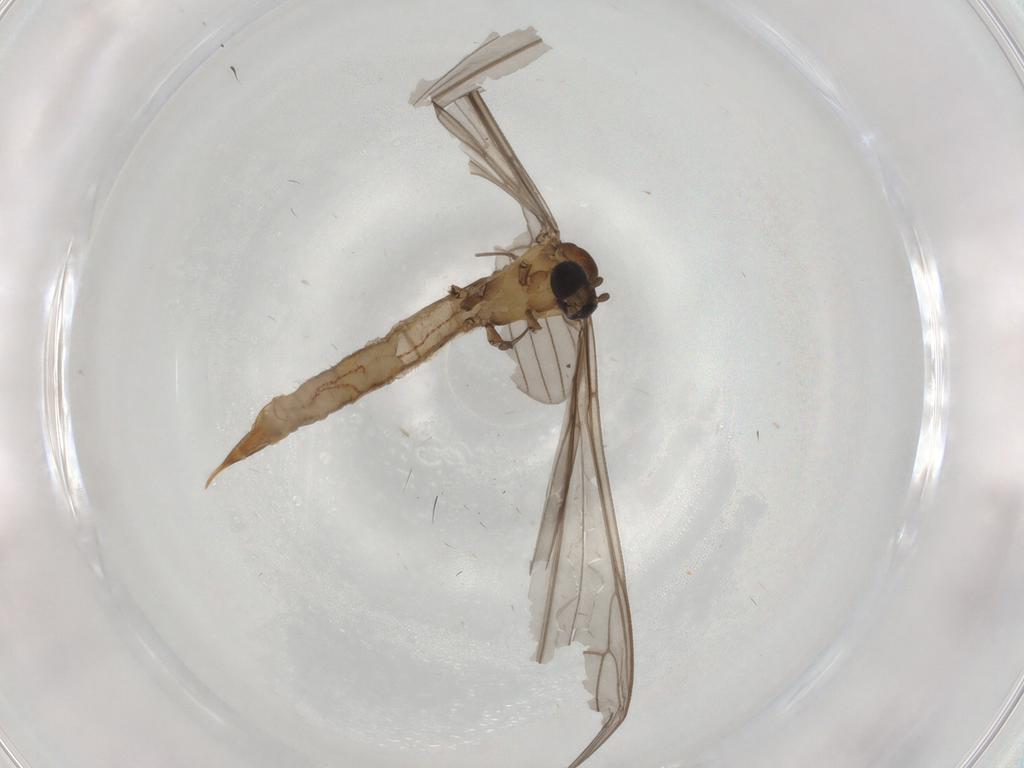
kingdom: Animalia
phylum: Arthropoda
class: Insecta
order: Diptera
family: Limoniidae
